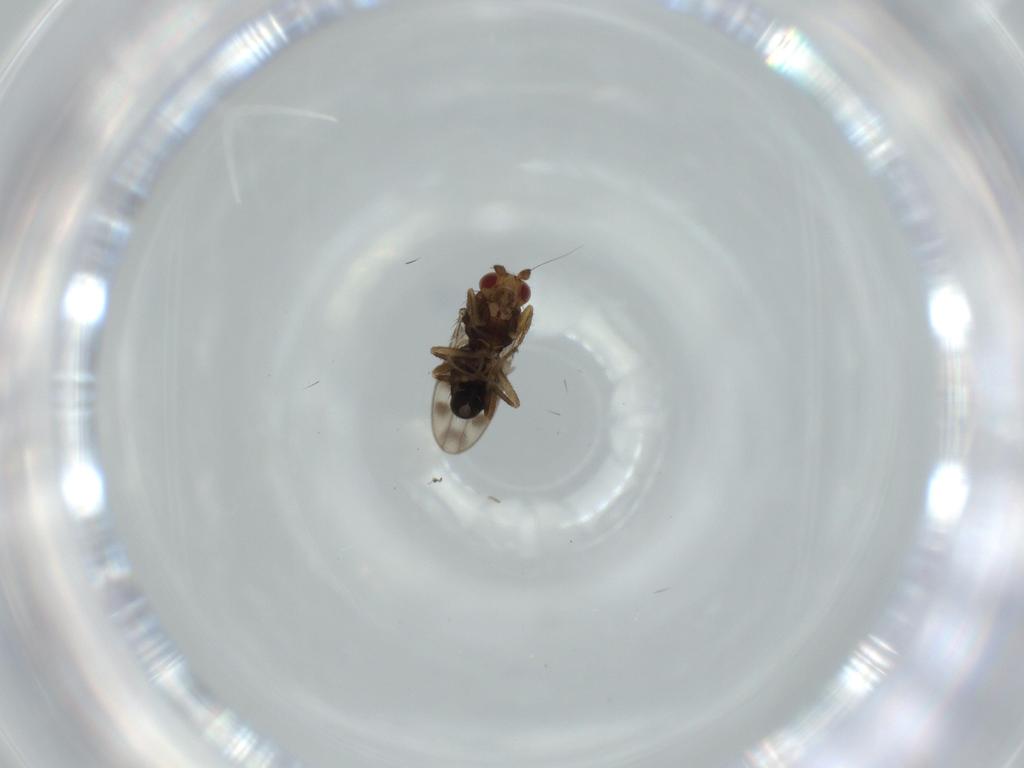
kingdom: Animalia
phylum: Arthropoda
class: Insecta
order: Diptera
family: Sphaeroceridae
